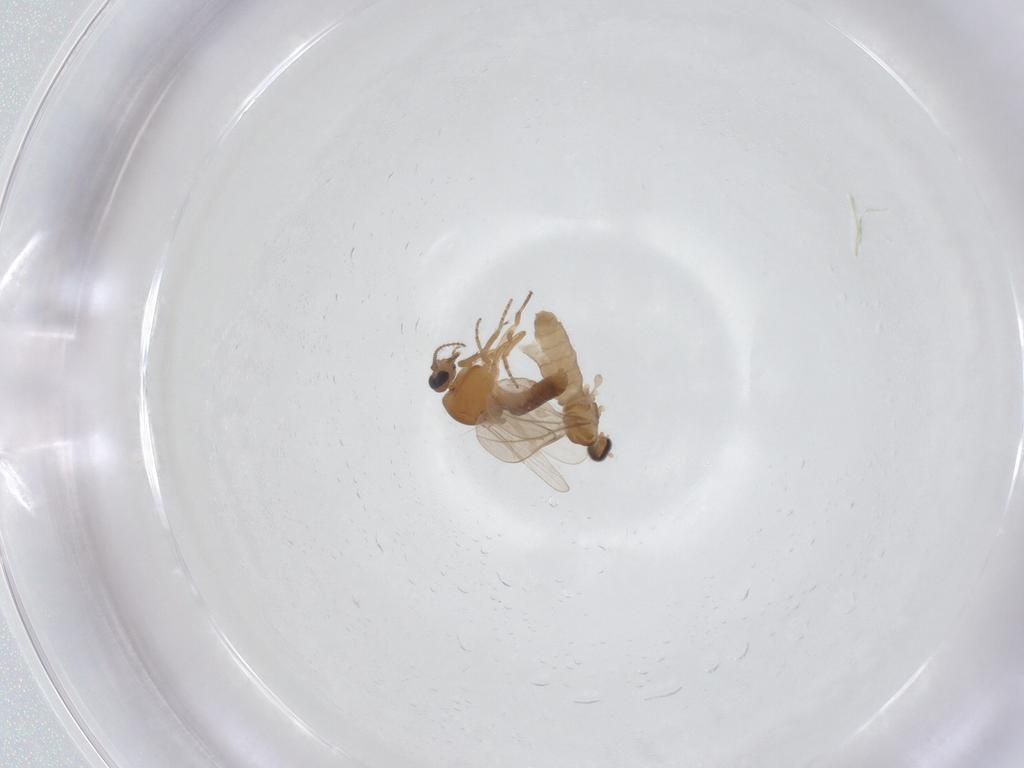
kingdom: Animalia
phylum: Arthropoda
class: Insecta
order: Diptera
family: Cecidomyiidae
